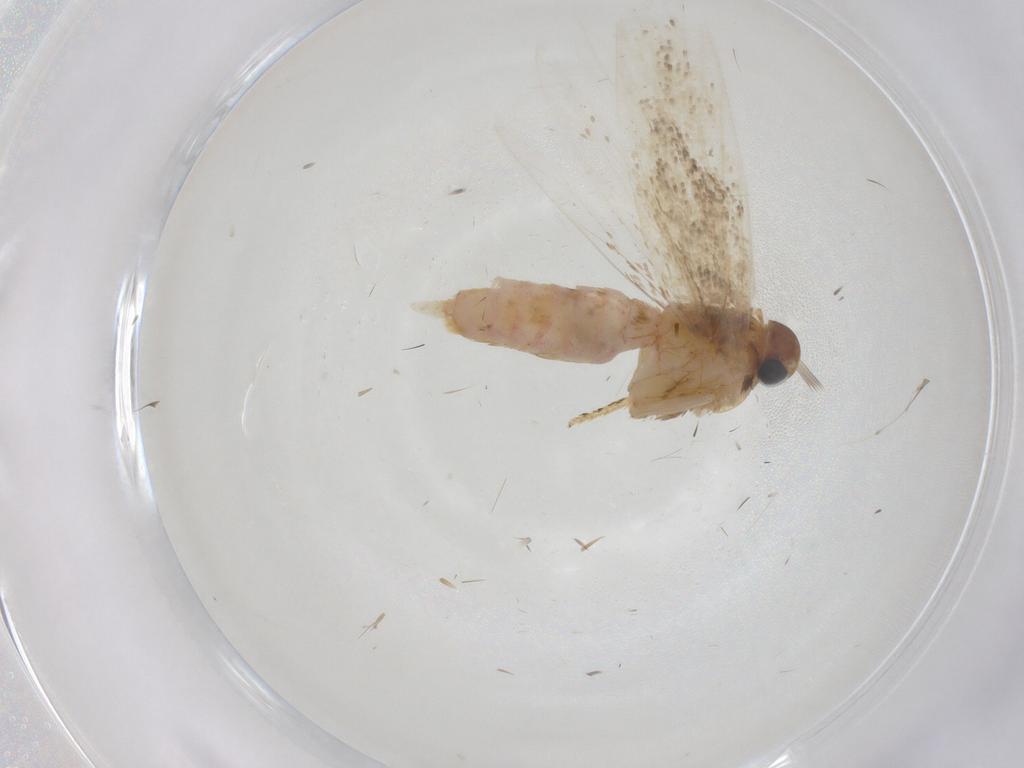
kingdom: Animalia
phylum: Arthropoda
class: Insecta
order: Lepidoptera
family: Gelechiidae
